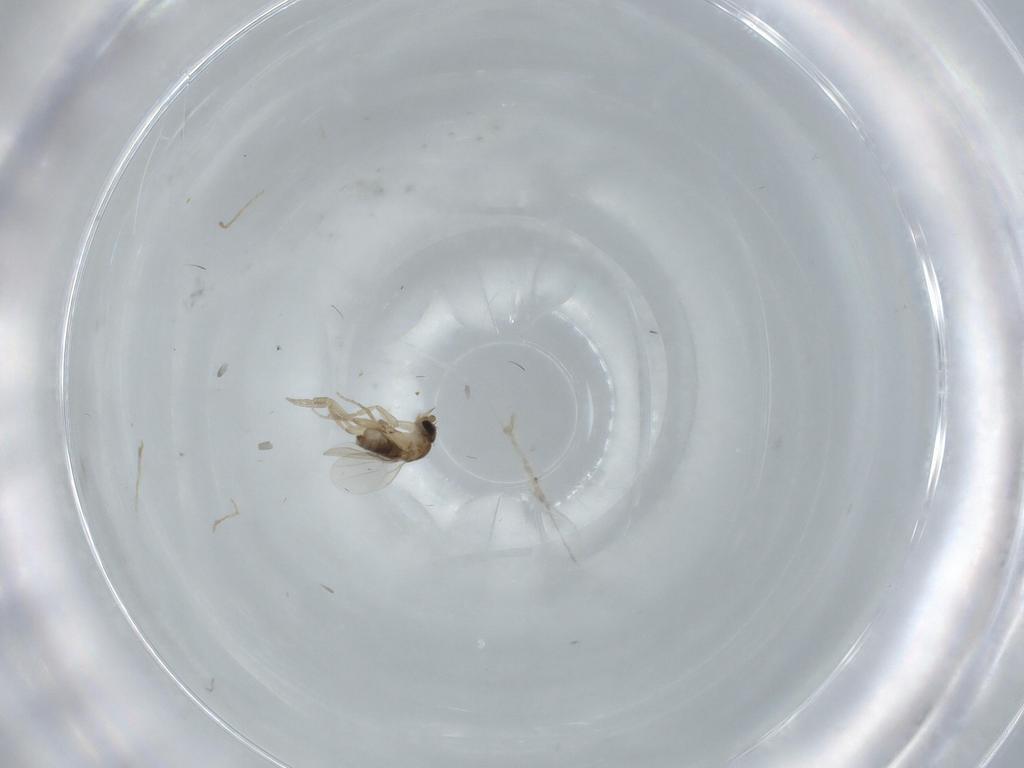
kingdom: Animalia
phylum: Arthropoda
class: Insecta
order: Diptera
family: Phoridae
